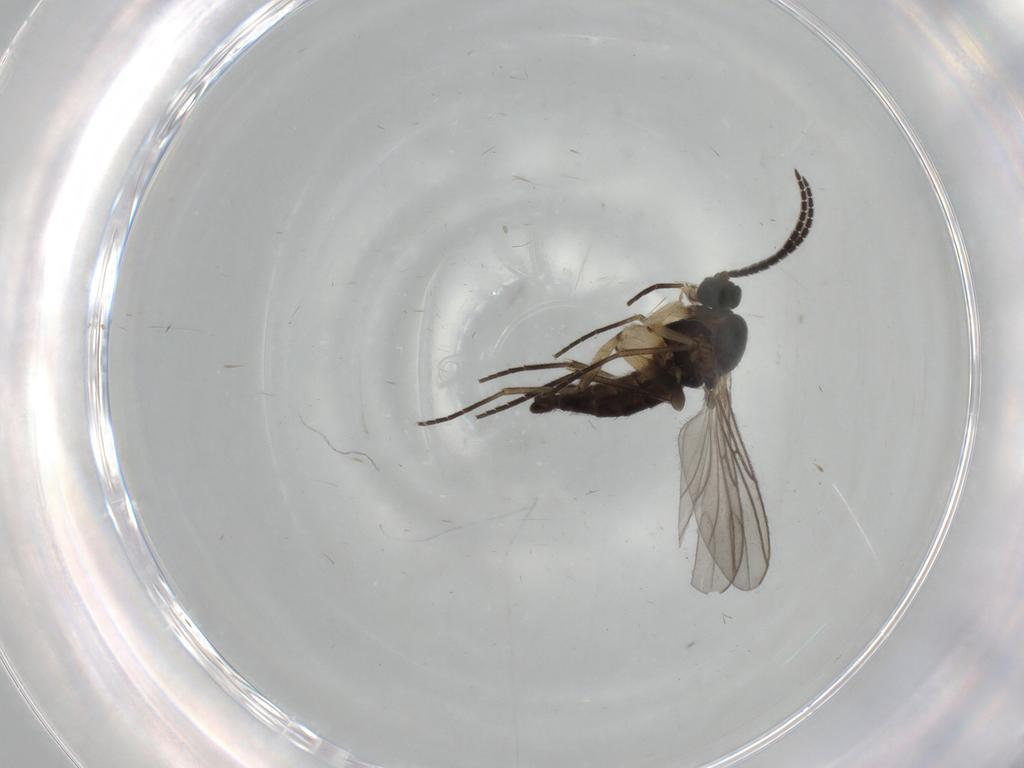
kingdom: Animalia
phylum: Arthropoda
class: Insecta
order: Diptera
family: Sciaridae
